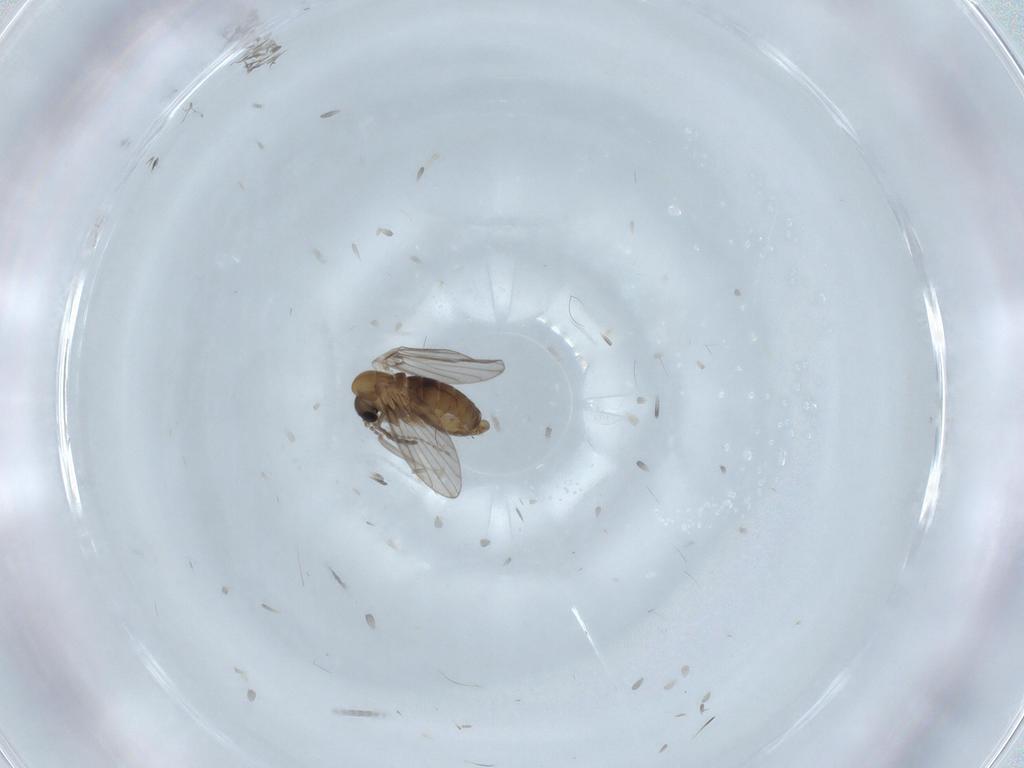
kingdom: Animalia
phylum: Arthropoda
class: Insecta
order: Diptera
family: Psychodidae
